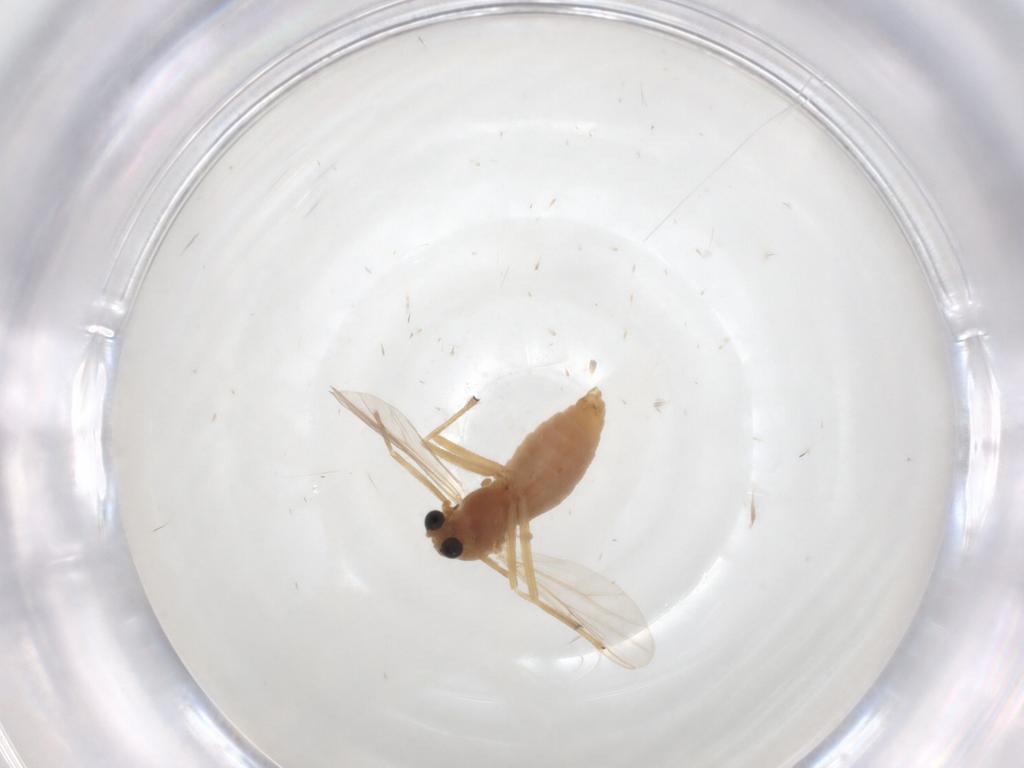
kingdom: Animalia
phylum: Arthropoda
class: Insecta
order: Diptera
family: Chironomidae
